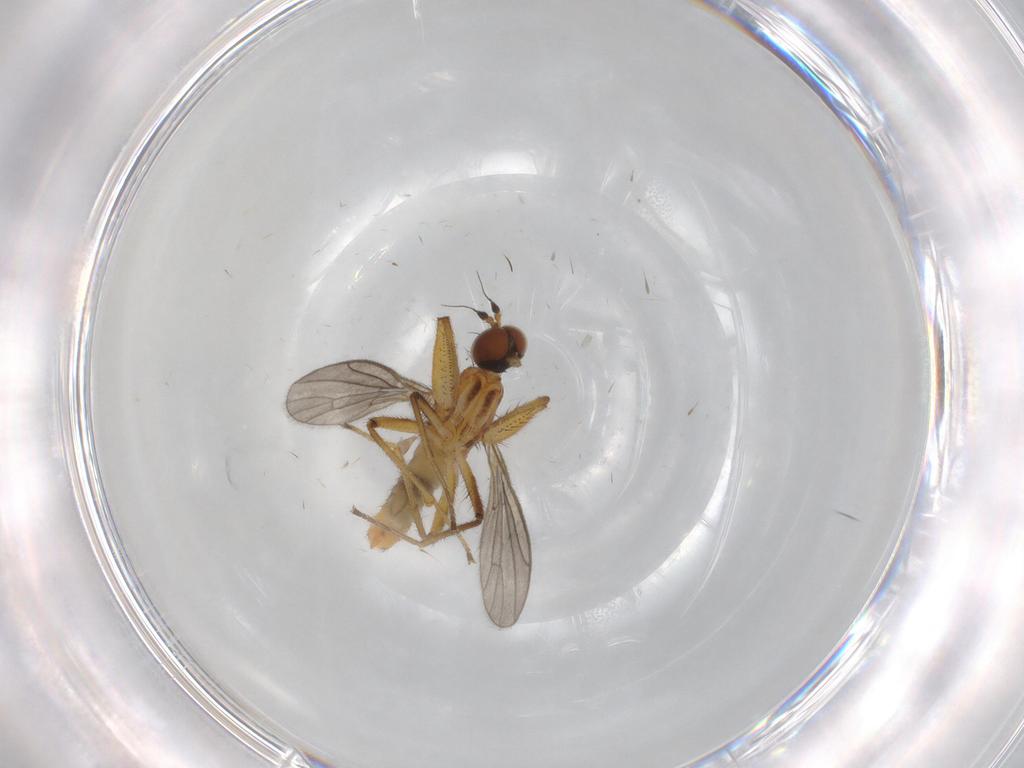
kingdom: Animalia
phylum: Arthropoda
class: Insecta
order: Diptera
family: Empididae
